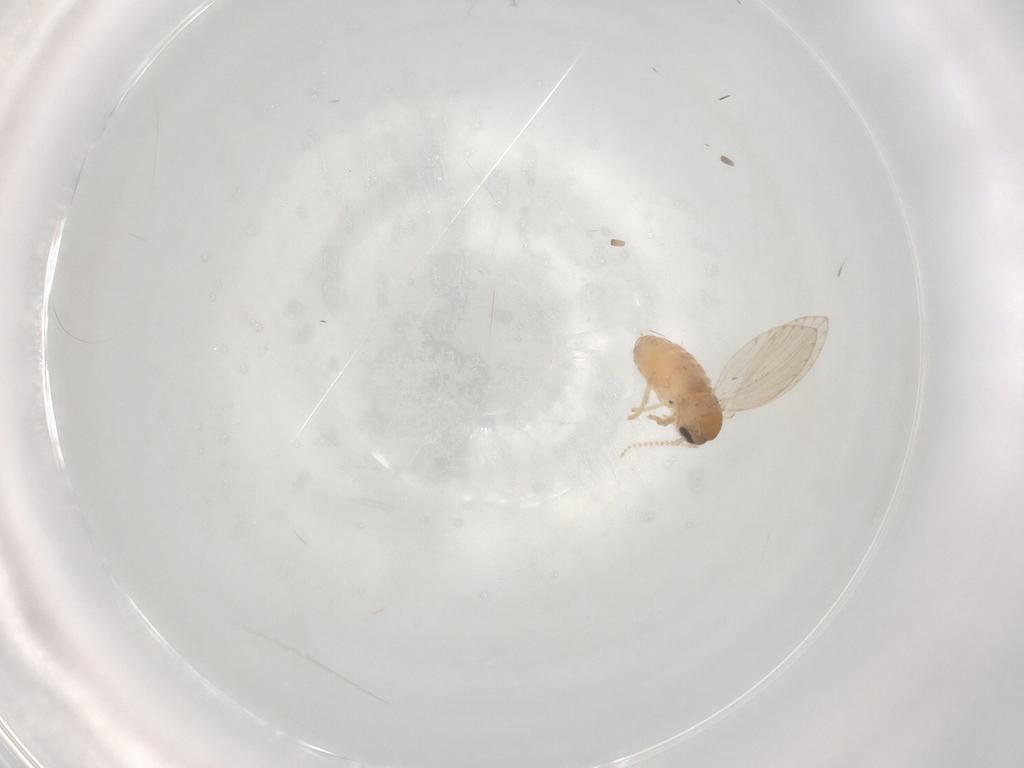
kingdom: Animalia
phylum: Arthropoda
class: Insecta
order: Diptera
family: Psychodidae
